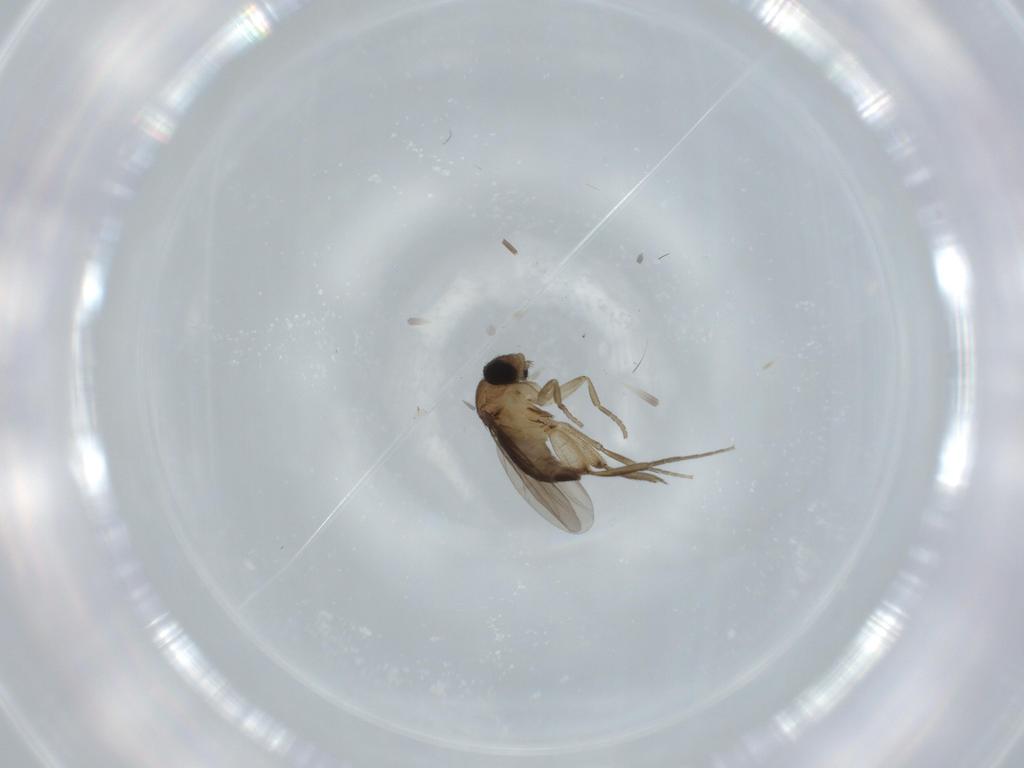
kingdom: Animalia
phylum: Arthropoda
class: Insecta
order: Diptera
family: Phoridae
